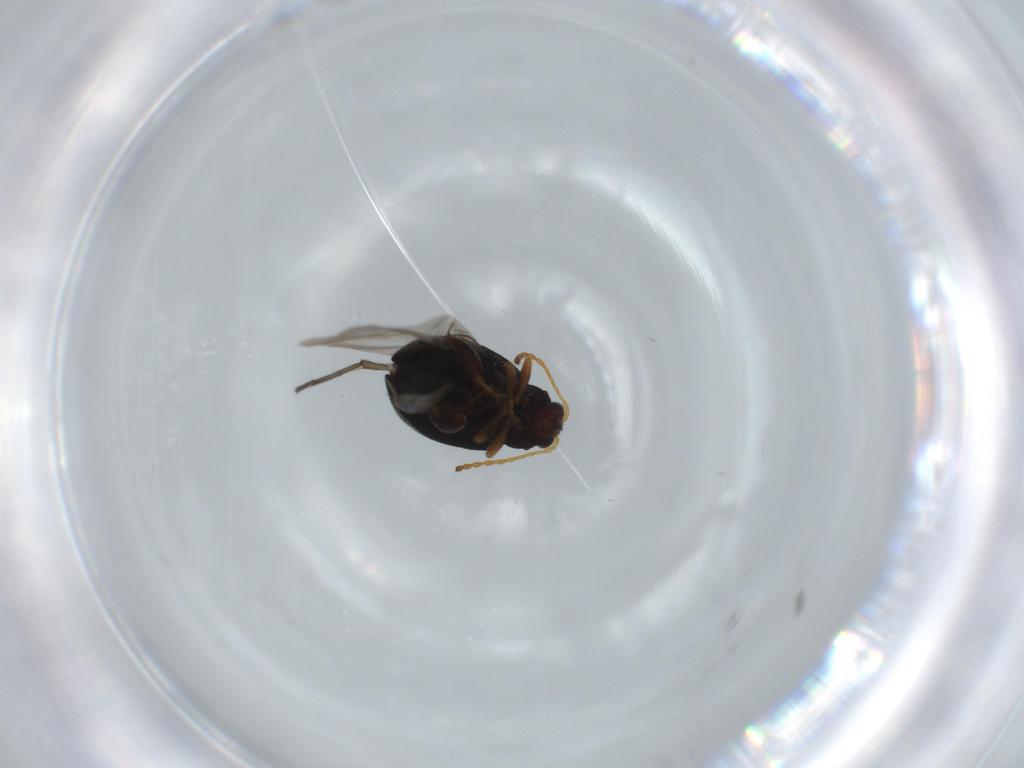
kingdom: Animalia
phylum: Arthropoda
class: Insecta
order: Coleoptera
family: Chrysomelidae
